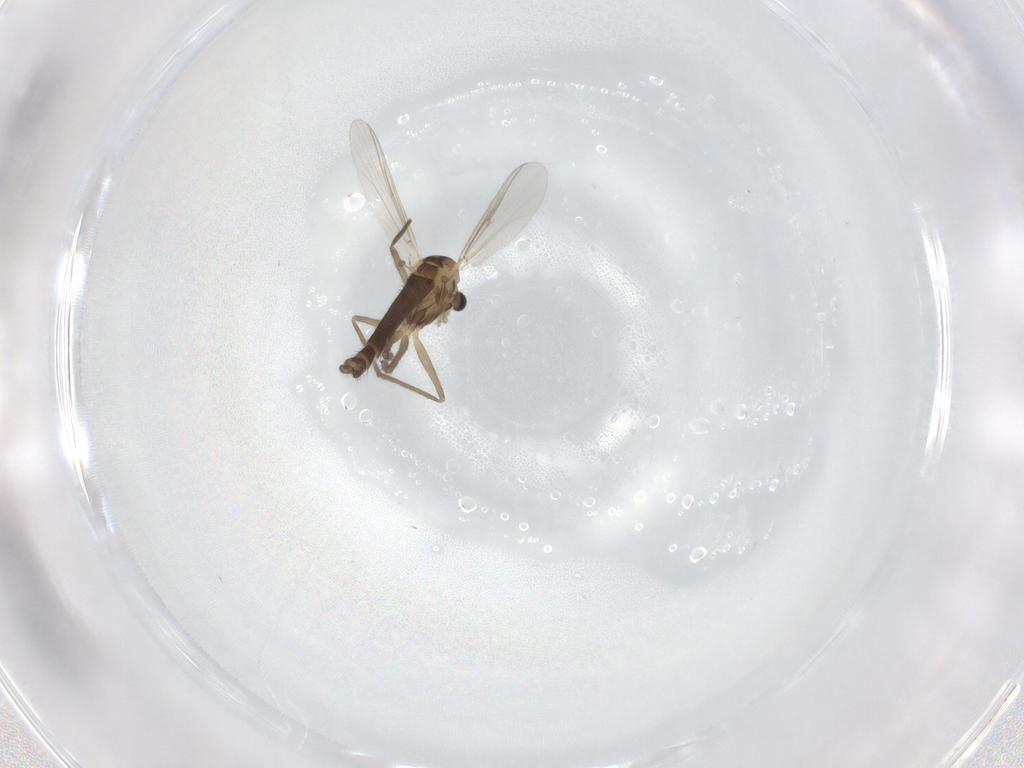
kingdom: Animalia
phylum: Arthropoda
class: Insecta
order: Diptera
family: Chironomidae
